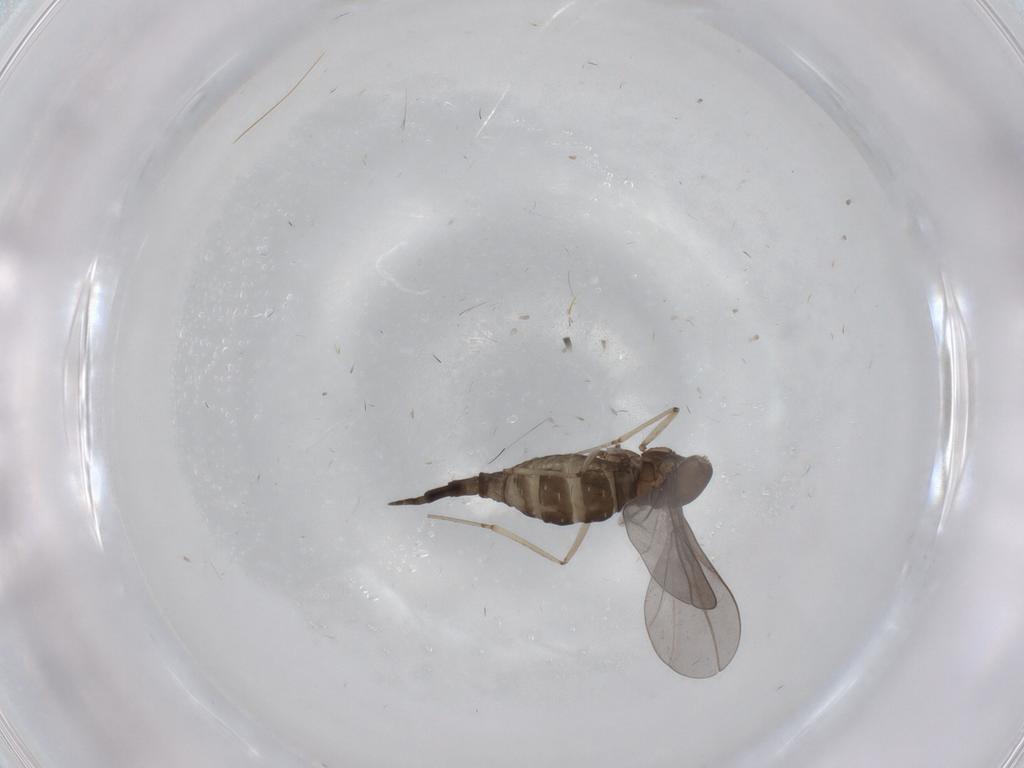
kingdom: Animalia
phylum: Arthropoda
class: Insecta
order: Diptera
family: Cecidomyiidae
